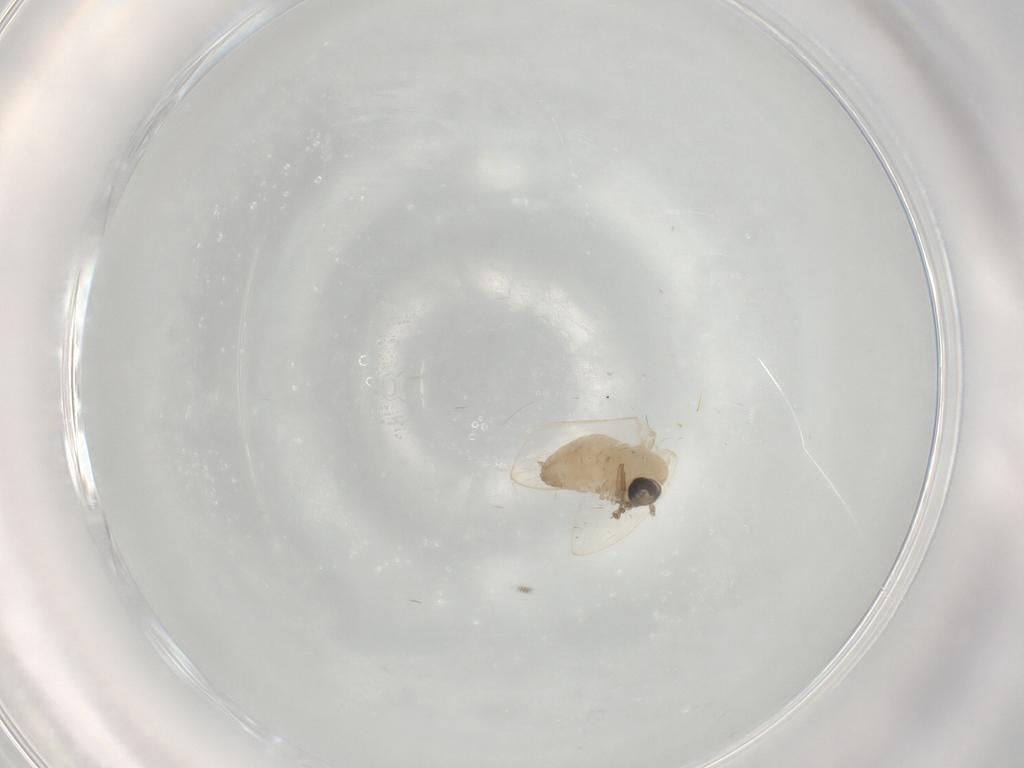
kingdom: Animalia
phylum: Arthropoda
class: Insecta
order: Diptera
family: Psychodidae
